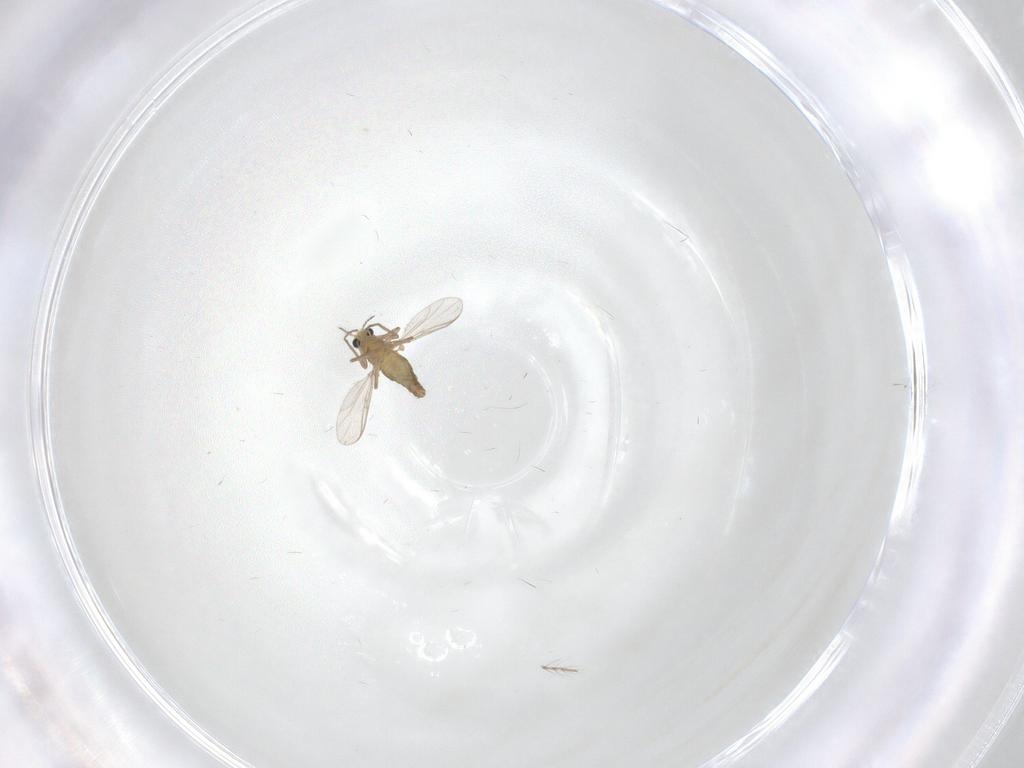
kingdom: Animalia
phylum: Arthropoda
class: Insecta
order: Diptera
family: Chironomidae
